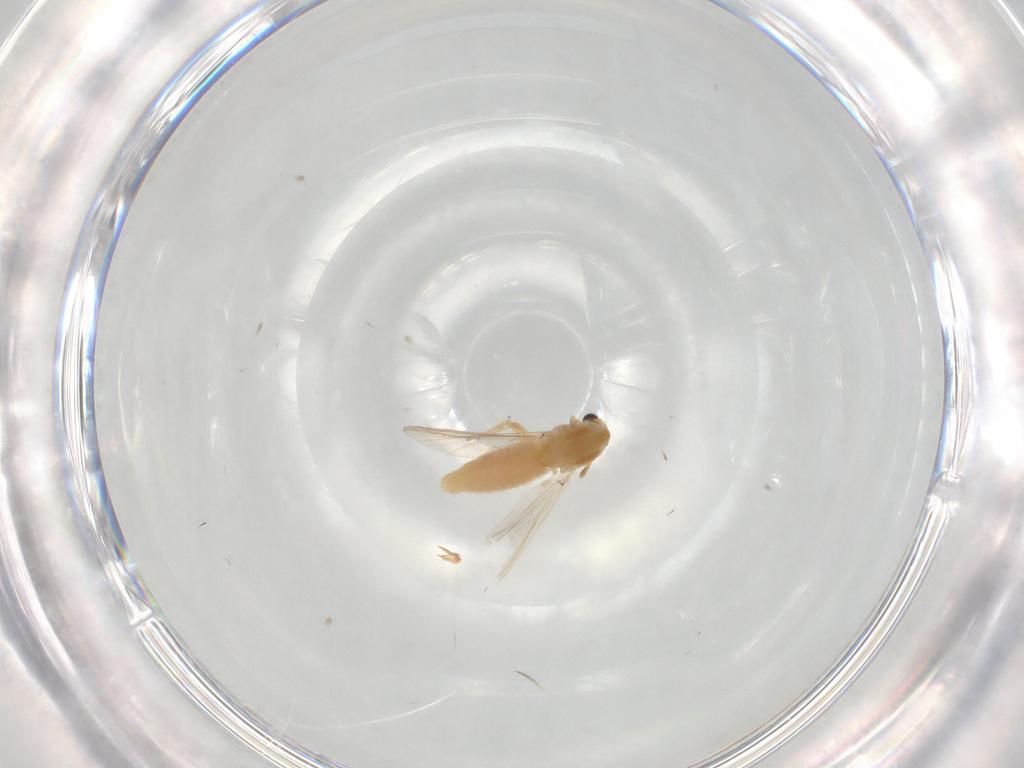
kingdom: Animalia
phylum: Arthropoda
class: Insecta
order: Diptera
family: Chironomidae
